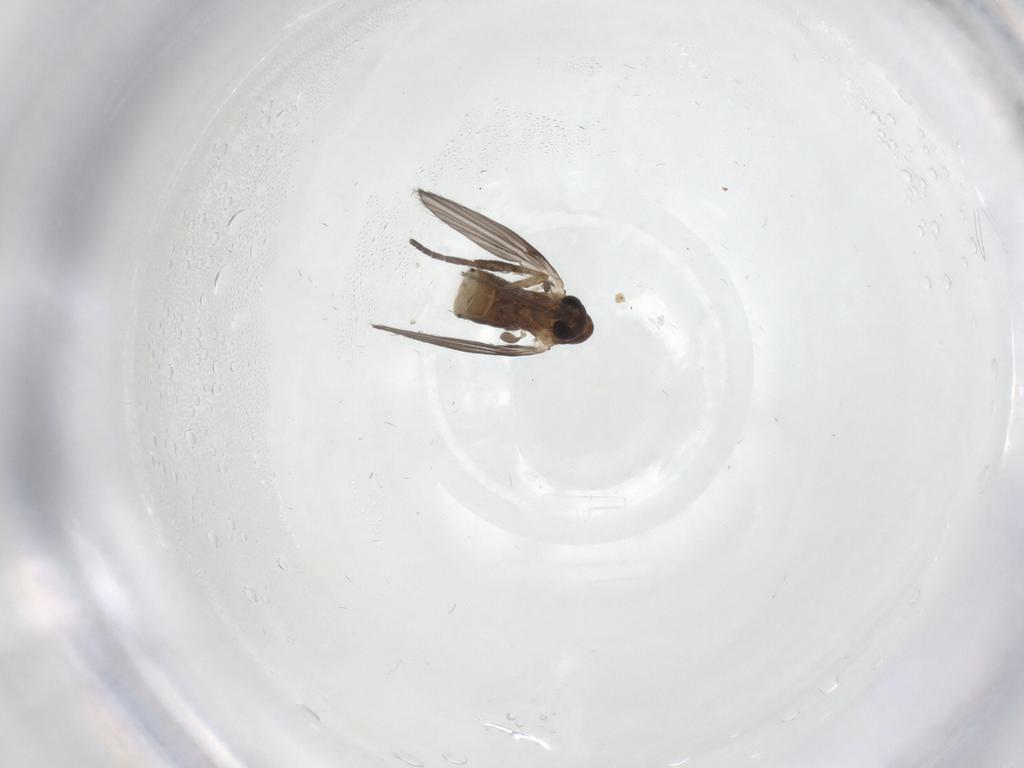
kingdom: Animalia
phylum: Arthropoda
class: Insecta
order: Diptera
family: Psychodidae
